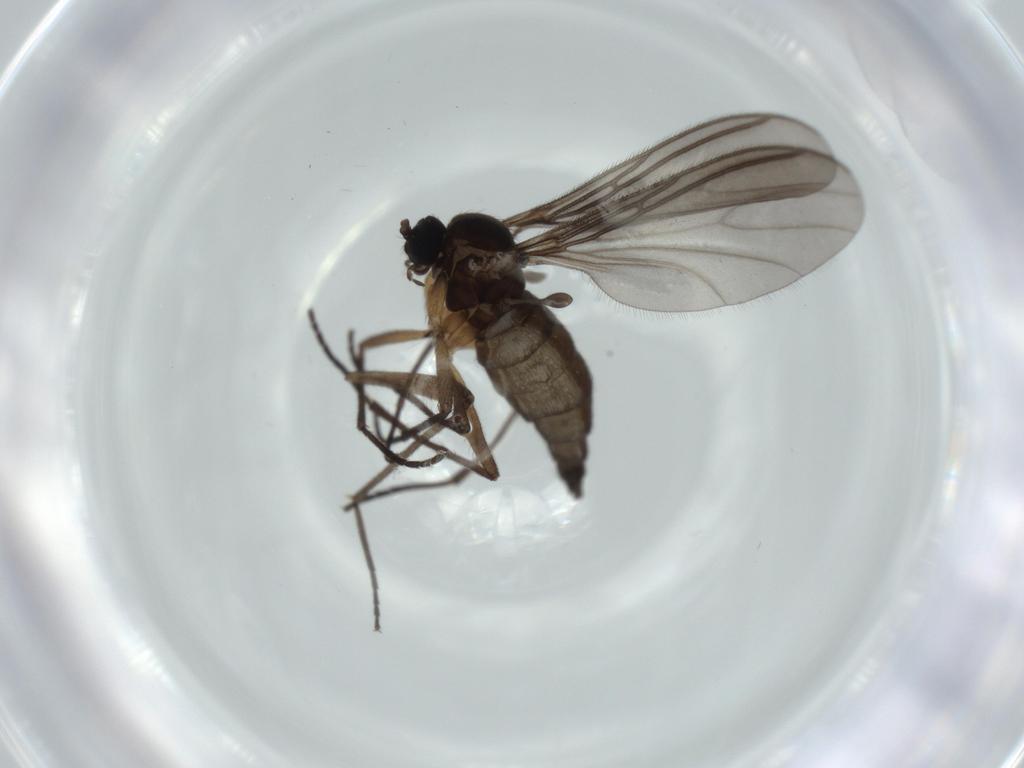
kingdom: Animalia
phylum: Arthropoda
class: Insecta
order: Diptera
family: Sciaridae
